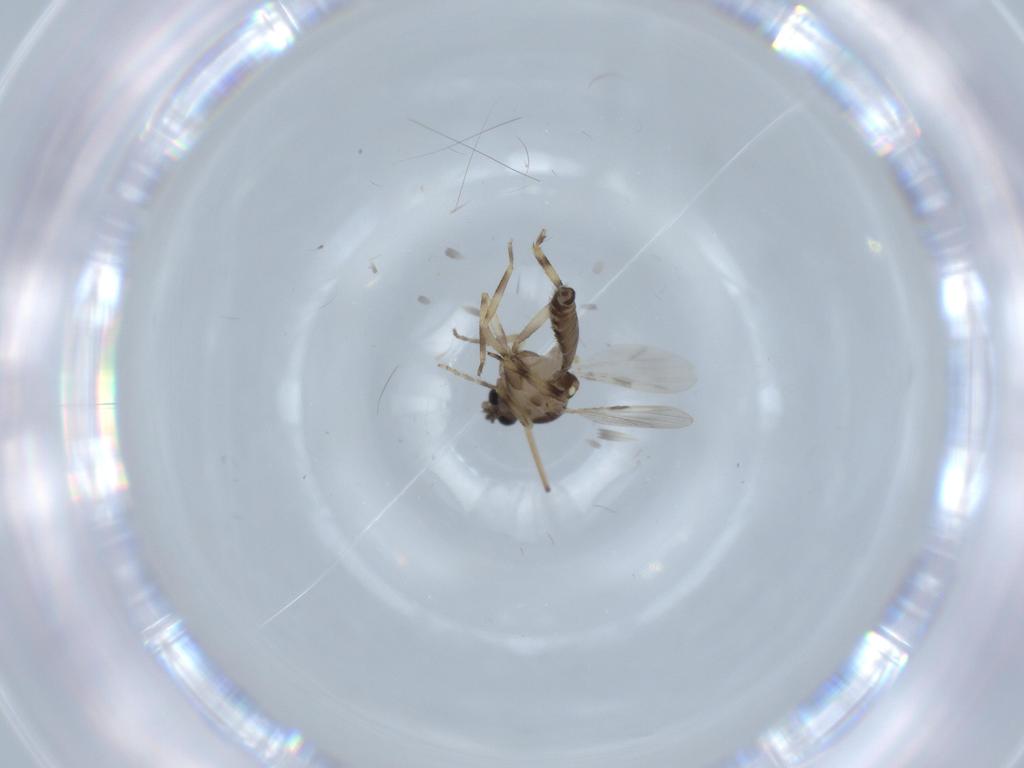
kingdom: Animalia
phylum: Arthropoda
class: Insecta
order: Diptera
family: Ceratopogonidae
